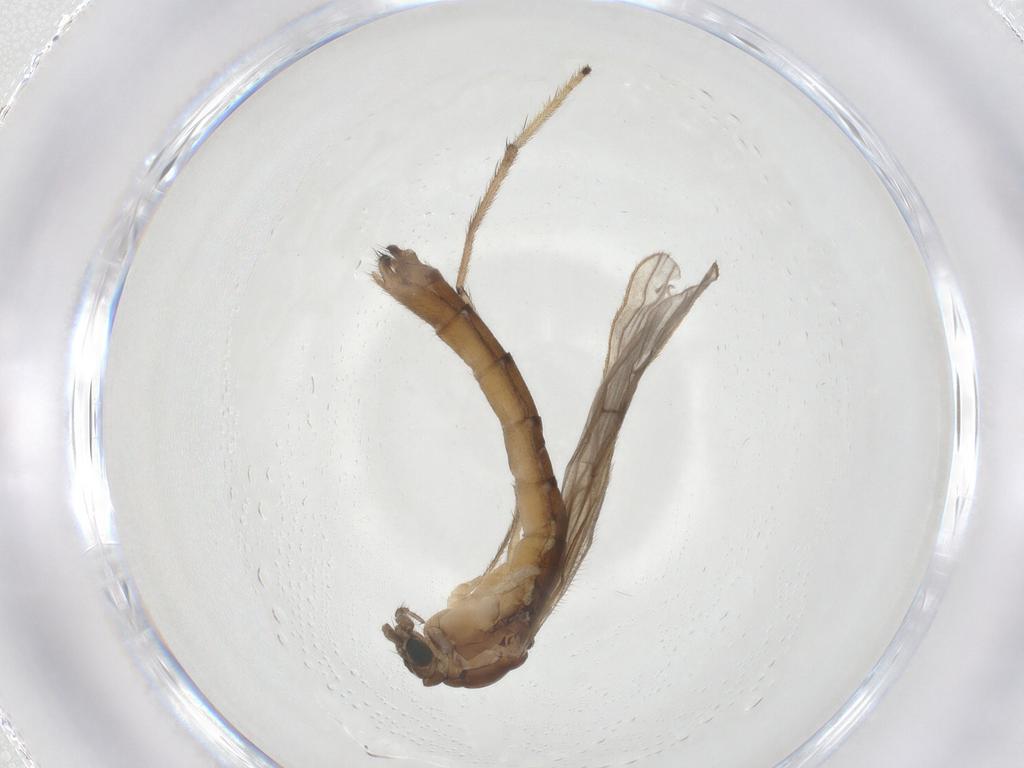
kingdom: Animalia
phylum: Arthropoda
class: Insecta
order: Diptera
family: Limoniidae
